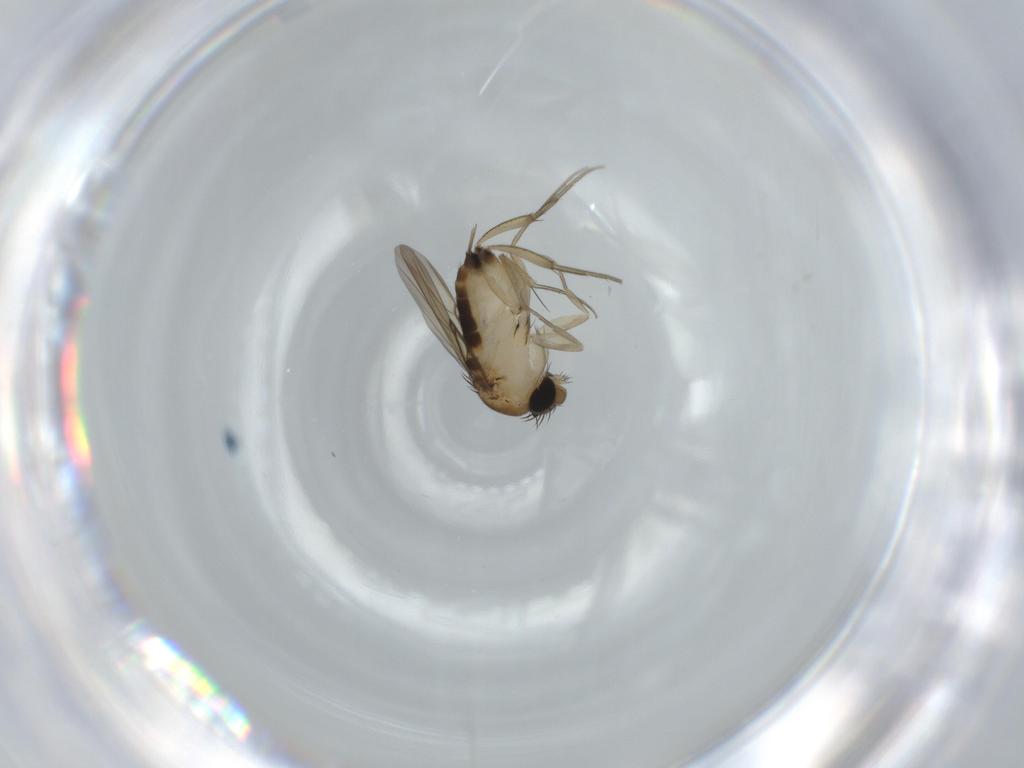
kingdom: Animalia
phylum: Arthropoda
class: Insecta
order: Diptera
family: Phoridae
